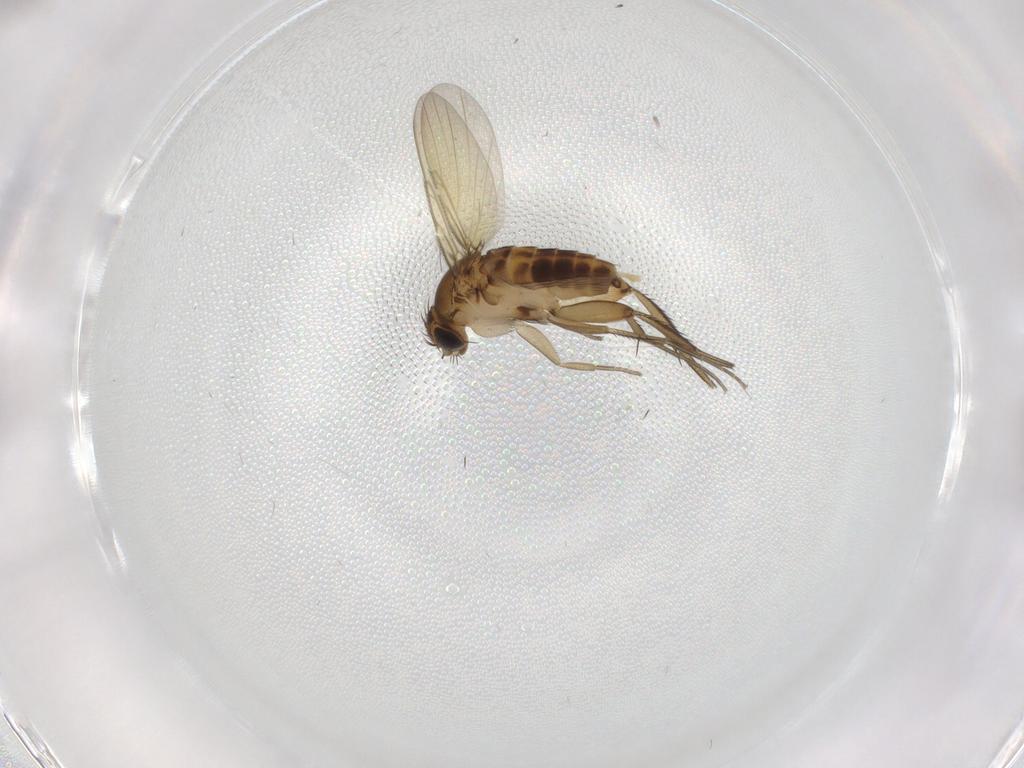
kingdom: Animalia
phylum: Arthropoda
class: Insecta
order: Diptera
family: Phoridae
